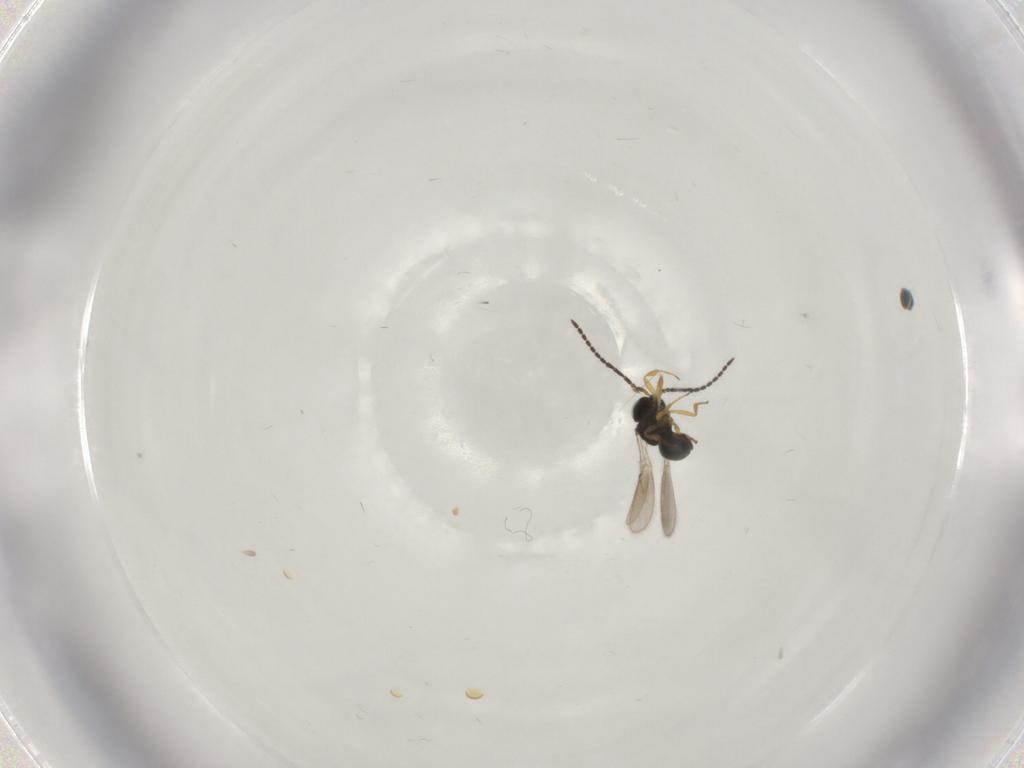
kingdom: Animalia
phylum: Arthropoda
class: Insecta
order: Hymenoptera
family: Scelionidae
